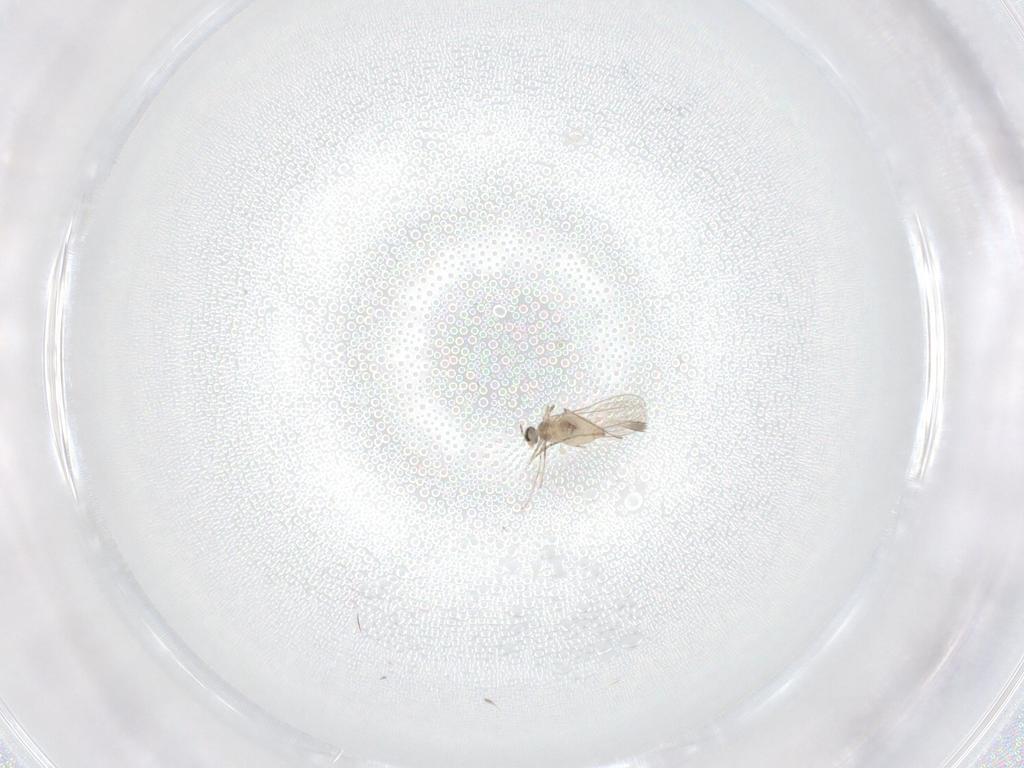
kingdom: Animalia
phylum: Arthropoda
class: Insecta
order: Diptera
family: Cecidomyiidae
